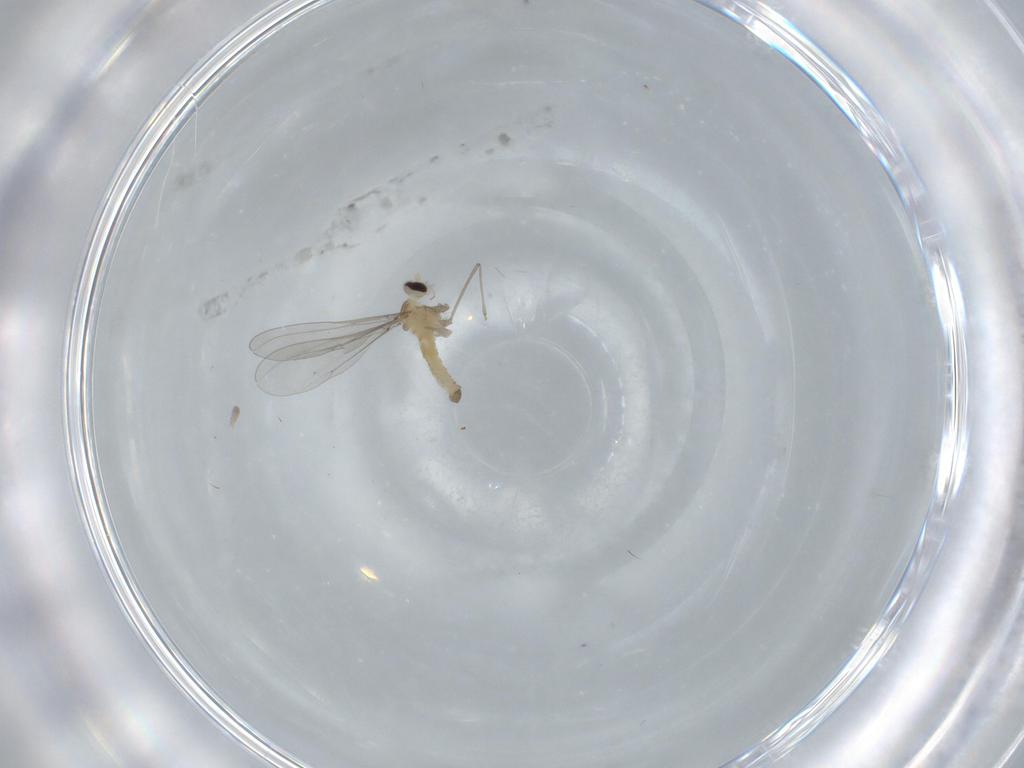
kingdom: Animalia
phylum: Arthropoda
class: Insecta
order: Diptera
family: Cecidomyiidae
